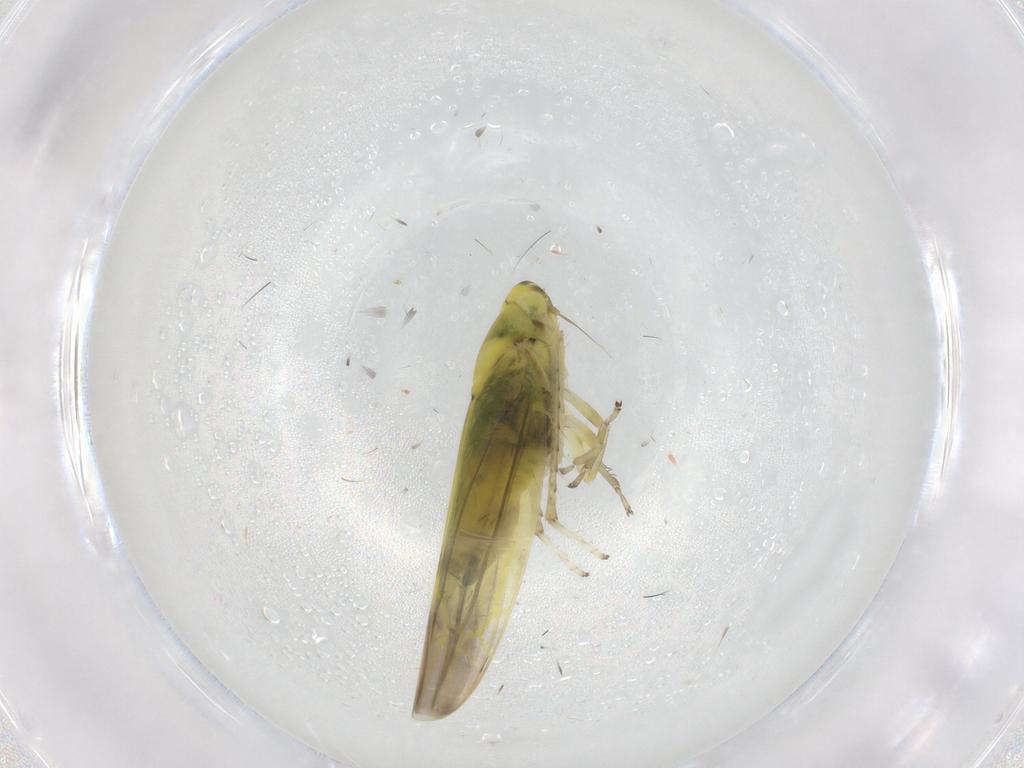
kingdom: Animalia
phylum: Arthropoda
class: Insecta
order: Hemiptera
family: Cicadellidae
